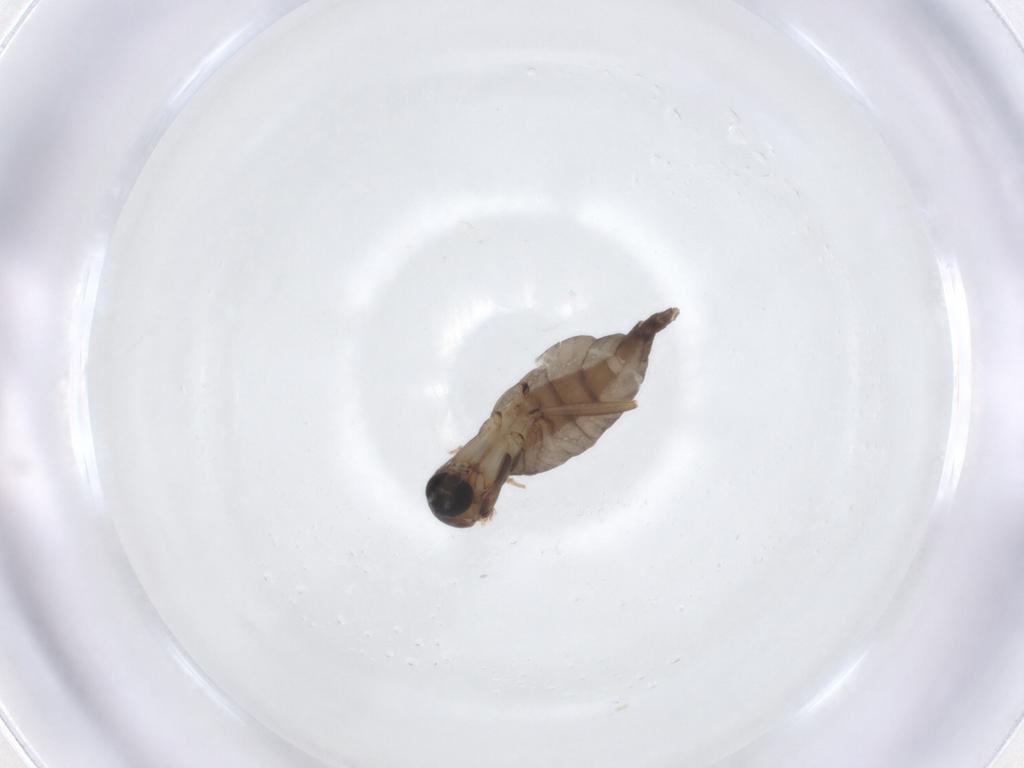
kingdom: Animalia
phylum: Arthropoda
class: Insecta
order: Diptera
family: Sciaridae
